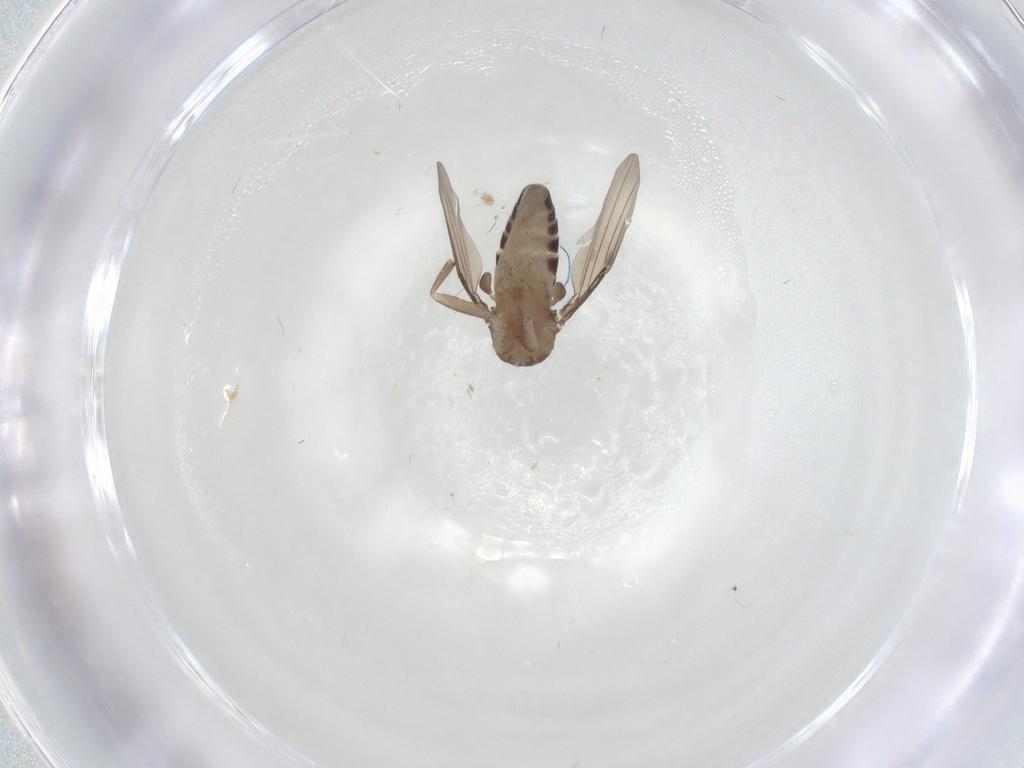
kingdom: Animalia
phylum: Arthropoda
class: Insecta
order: Diptera
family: Phoridae
